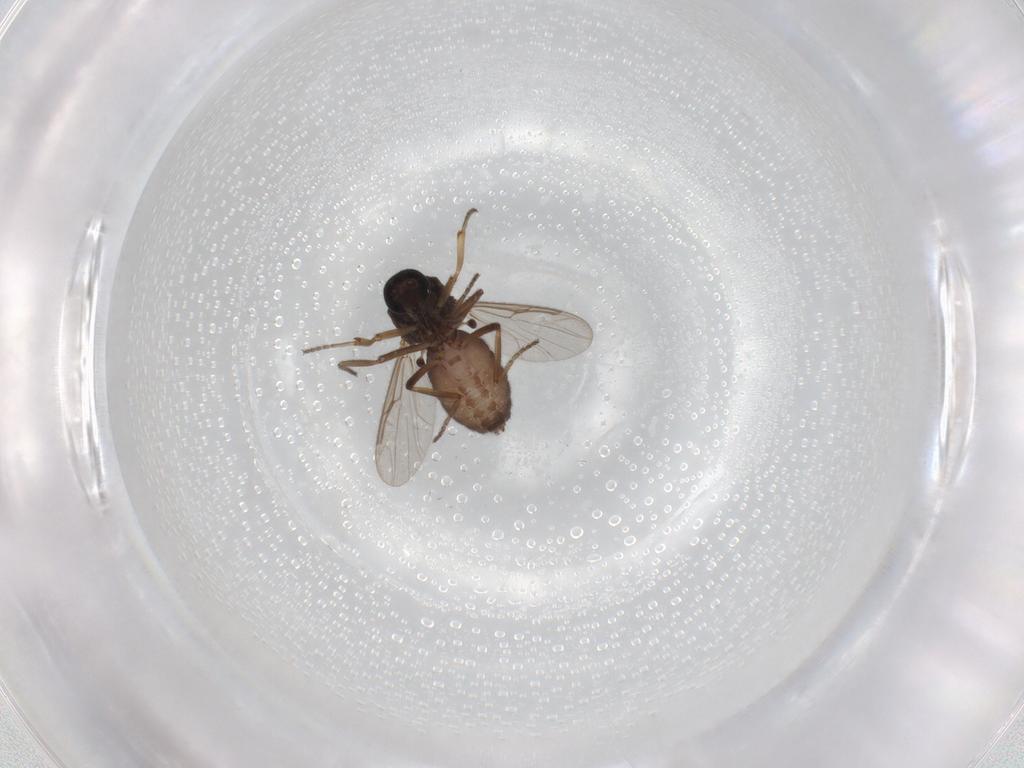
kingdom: Animalia
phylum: Arthropoda
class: Insecta
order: Diptera
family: Ceratopogonidae
